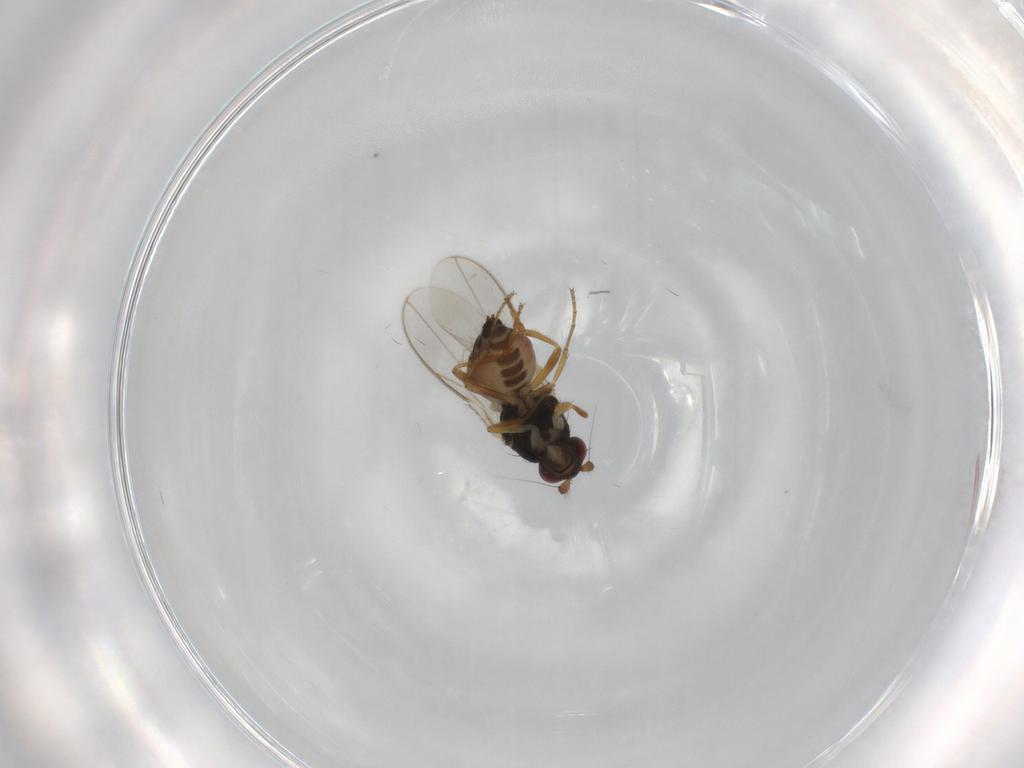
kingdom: Animalia
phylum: Arthropoda
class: Insecta
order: Diptera
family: Sphaeroceridae
